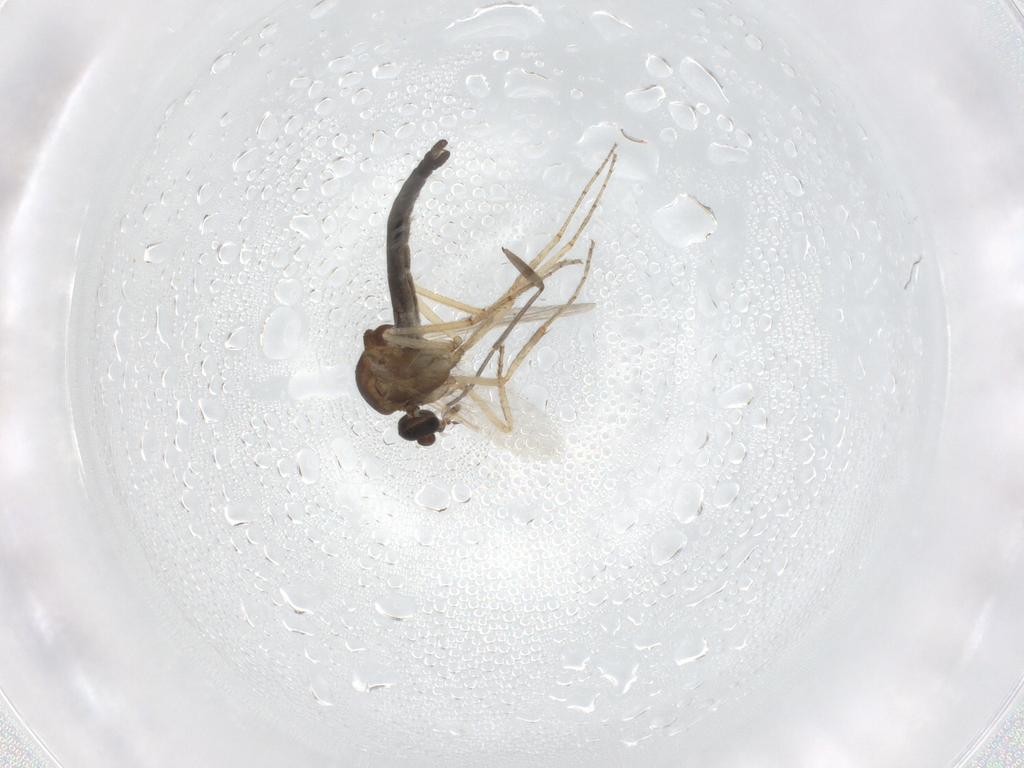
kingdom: Animalia
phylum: Arthropoda
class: Insecta
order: Diptera
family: Ceratopogonidae
